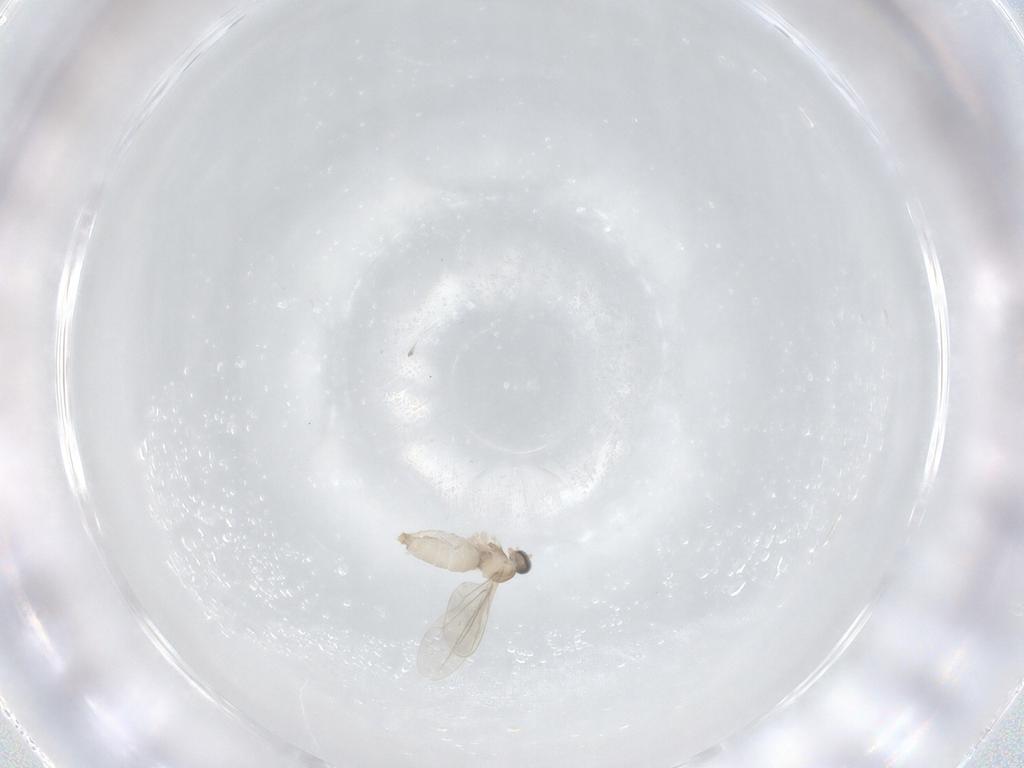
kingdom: Animalia
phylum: Arthropoda
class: Insecta
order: Diptera
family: Cecidomyiidae
